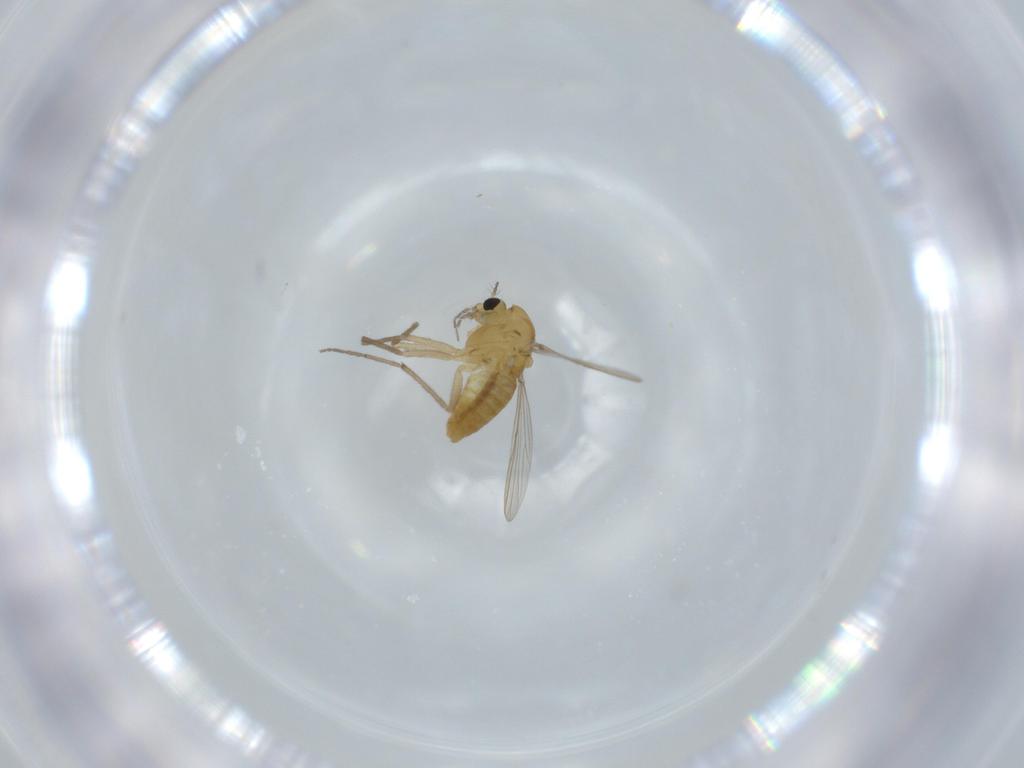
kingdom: Animalia
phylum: Arthropoda
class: Insecta
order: Diptera
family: Chironomidae
